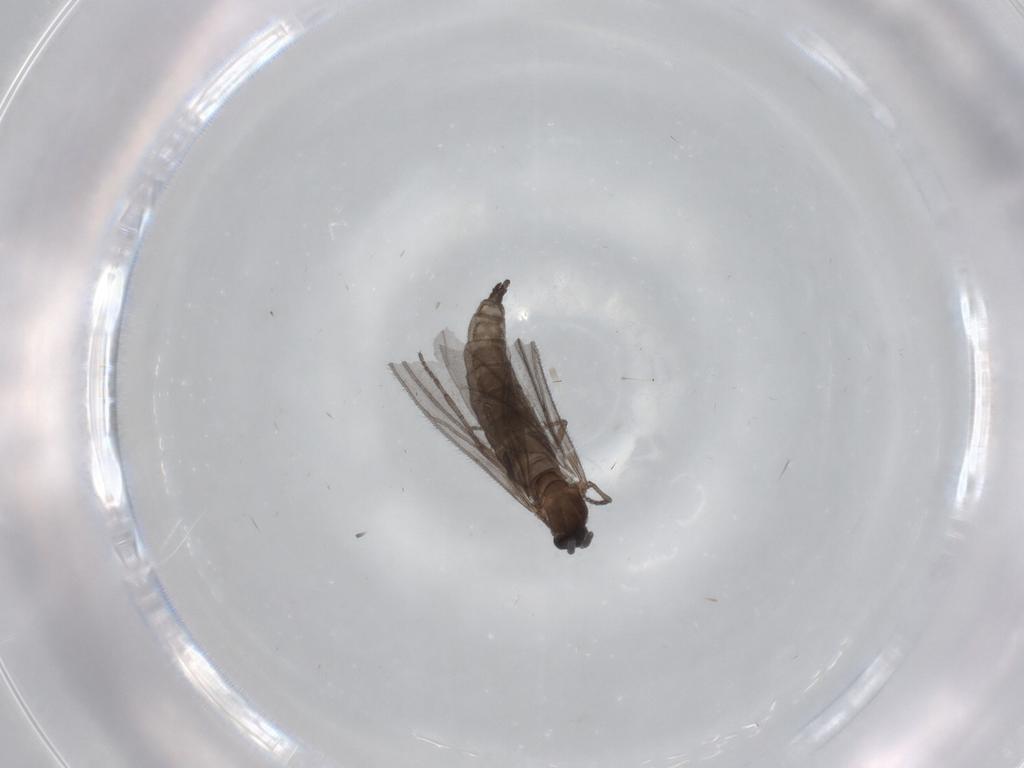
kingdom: Animalia
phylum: Arthropoda
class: Insecta
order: Diptera
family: Sciaridae
